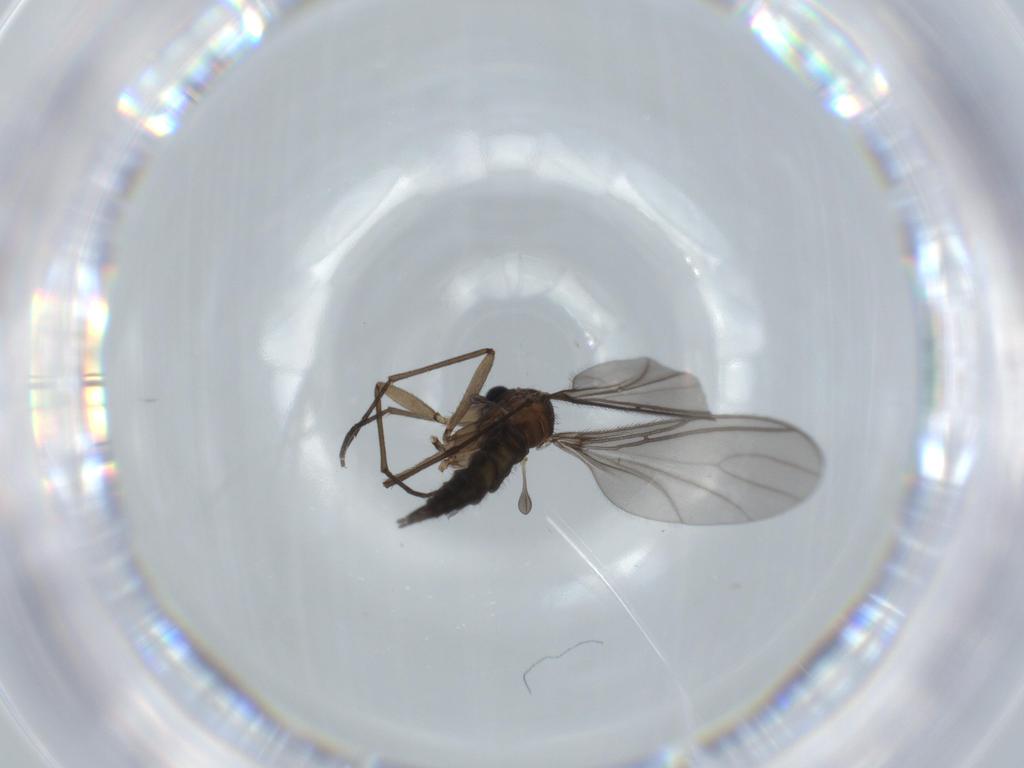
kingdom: Animalia
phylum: Arthropoda
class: Insecta
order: Diptera
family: Sciaridae
